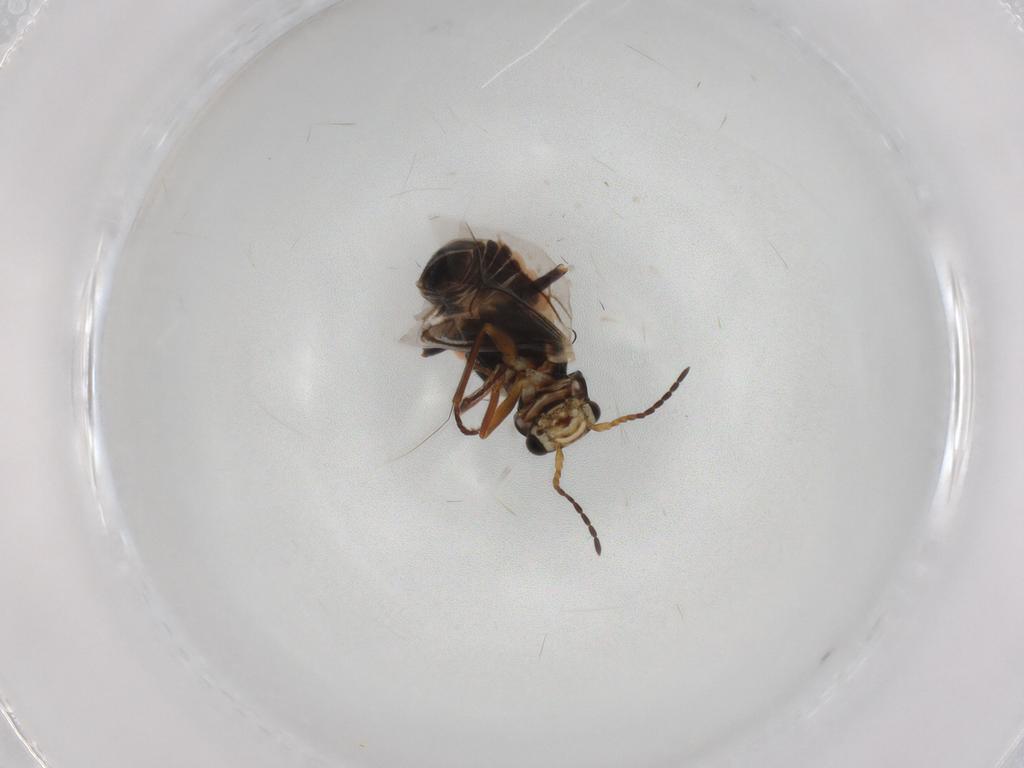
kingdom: Animalia
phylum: Arthropoda
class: Insecta
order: Coleoptera
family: Melyridae
